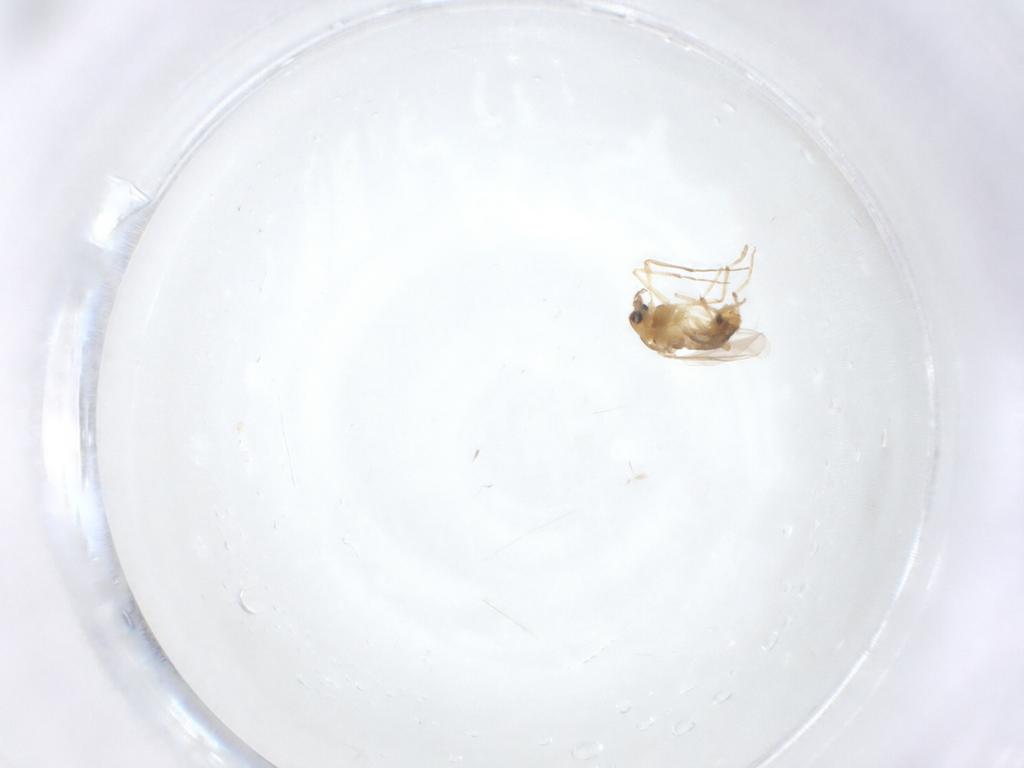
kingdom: Animalia
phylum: Arthropoda
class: Insecta
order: Diptera
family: Chironomidae
